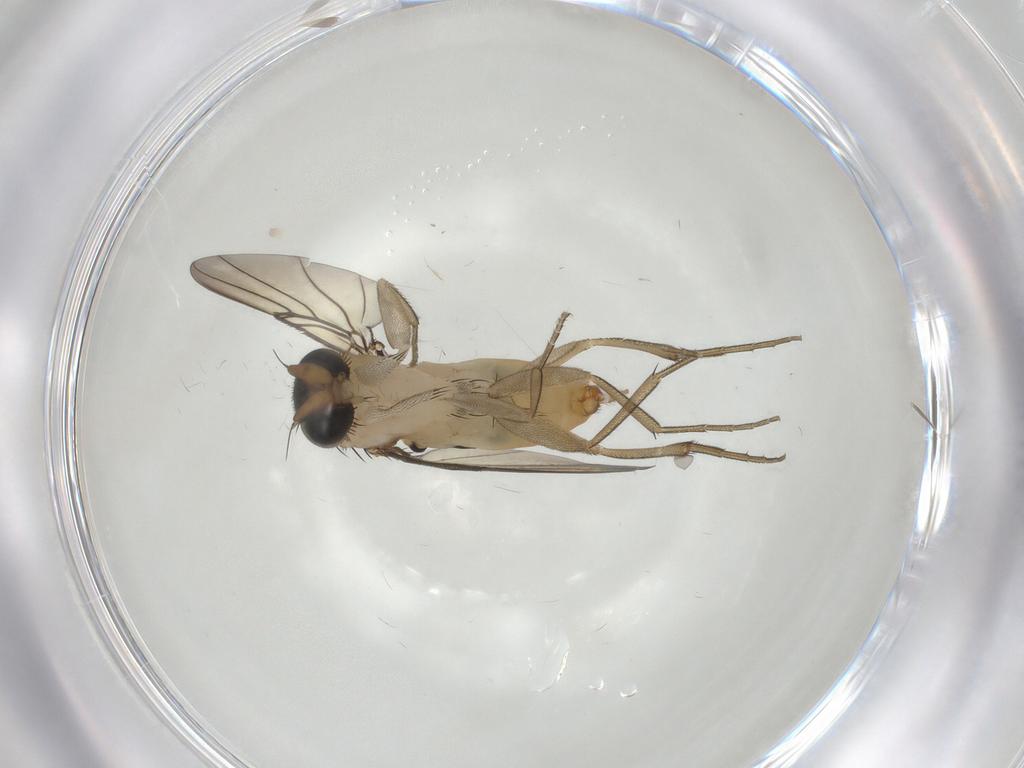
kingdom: Animalia
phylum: Arthropoda
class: Insecta
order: Diptera
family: Phoridae
